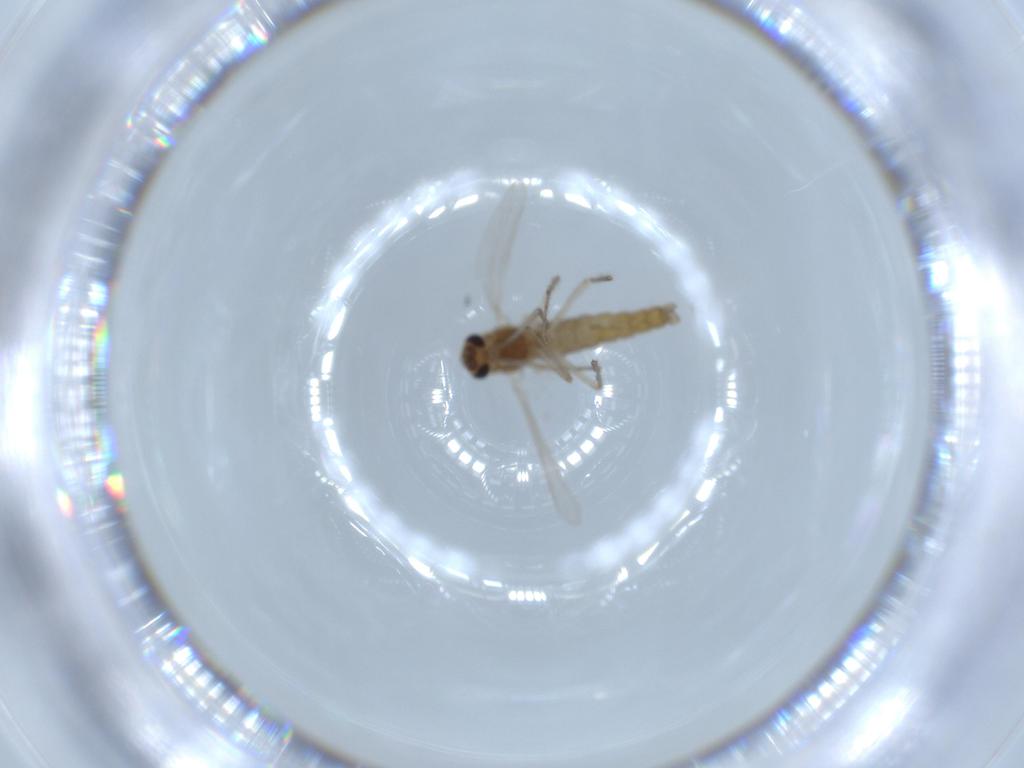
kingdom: Animalia
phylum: Arthropoda
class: Insecta
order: Diptera
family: Chironomidae
